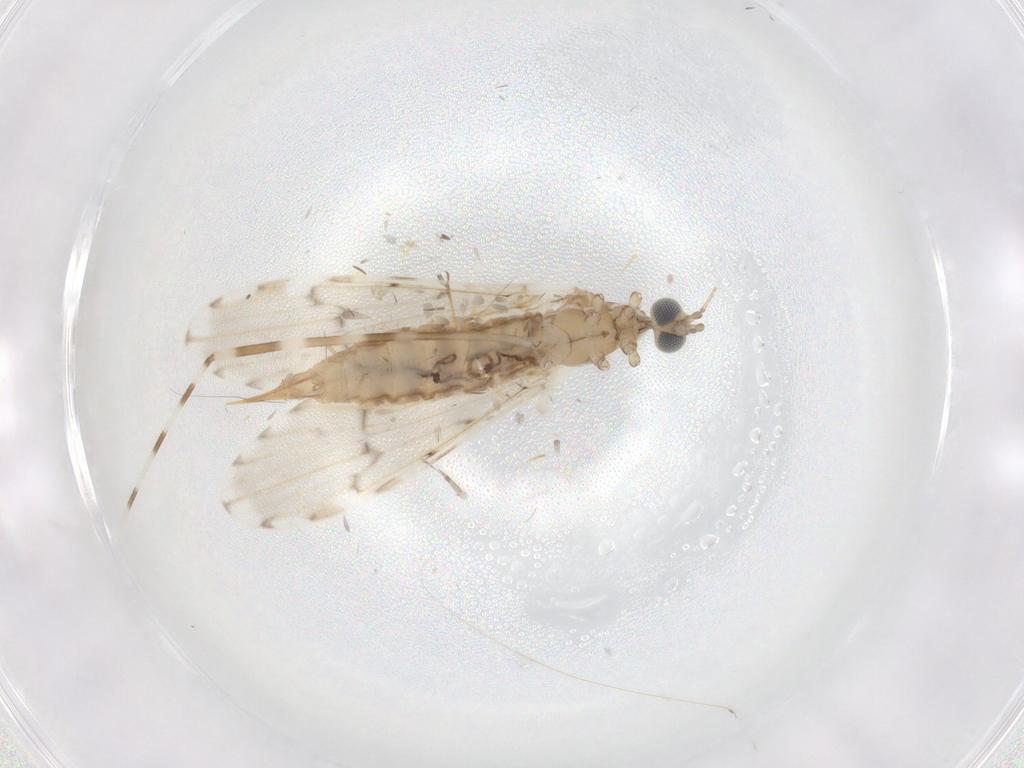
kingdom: Animalia
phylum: Arthropoda
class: Insecta
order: Diptera
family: Limoniidae
